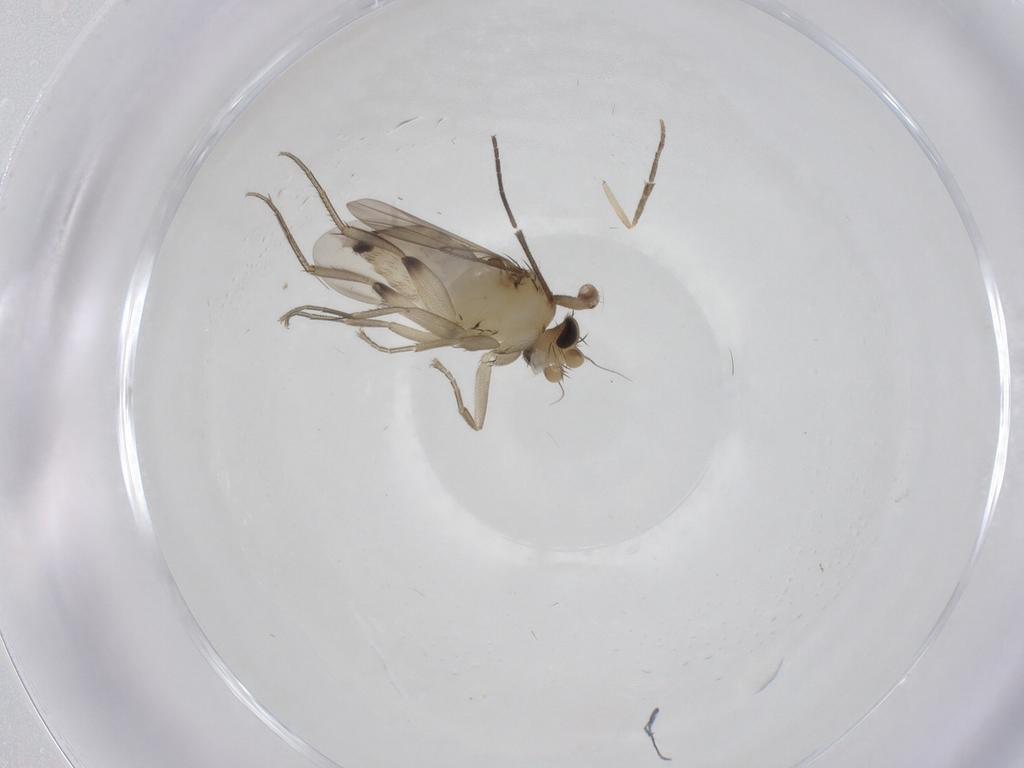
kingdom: Animalia
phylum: Arthropoda
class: Insecta
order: Diptera
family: Phoridae
